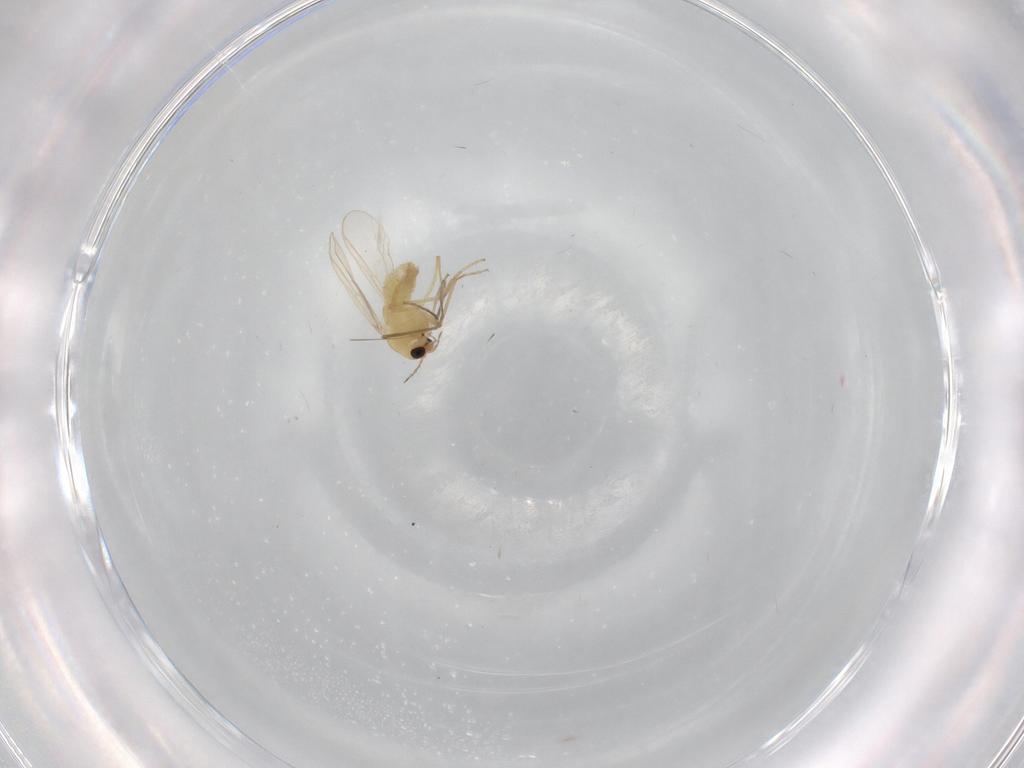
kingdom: Animalia
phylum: Arthropoda
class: Insecta
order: Diptera
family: Chironomidae
